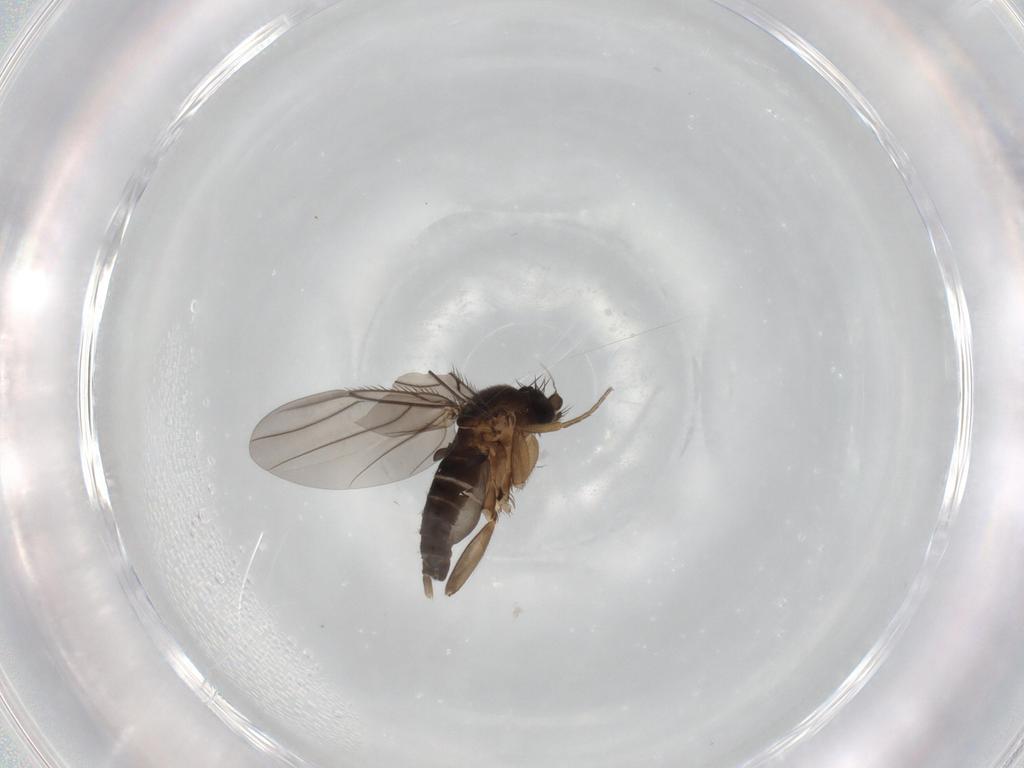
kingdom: Animalia
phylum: Arthropoda
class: Insecta
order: Diptera
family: Phoridae
